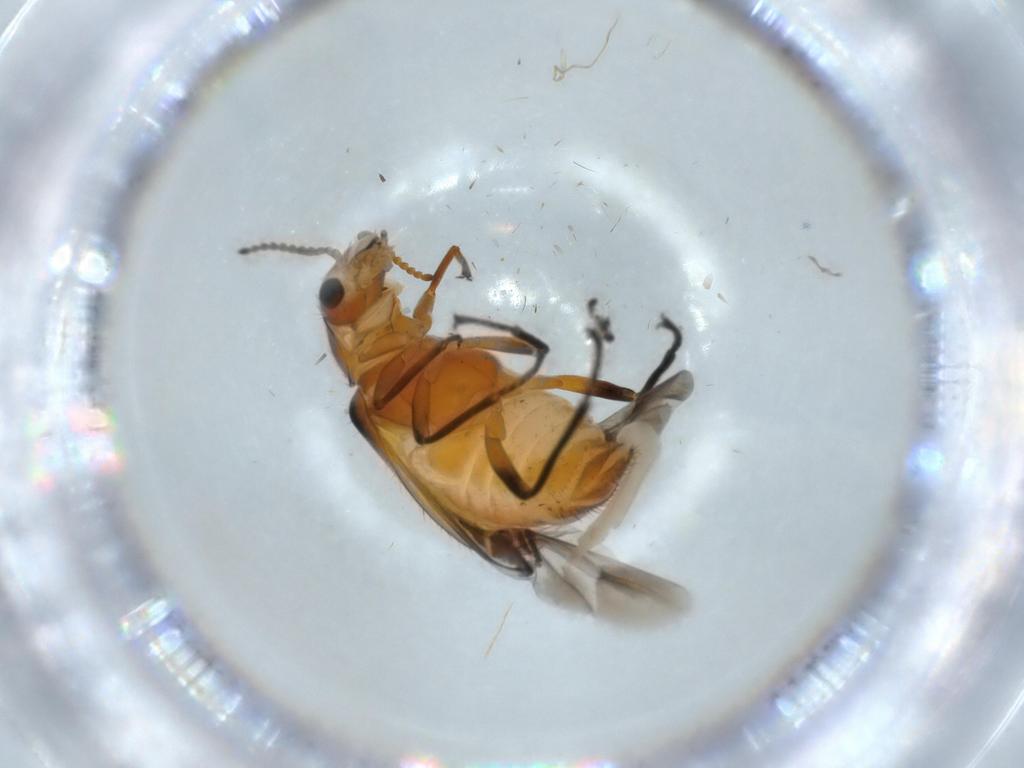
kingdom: Animalia
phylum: Arthropoda
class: Insecta
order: Coleoptera
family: Melyridae
